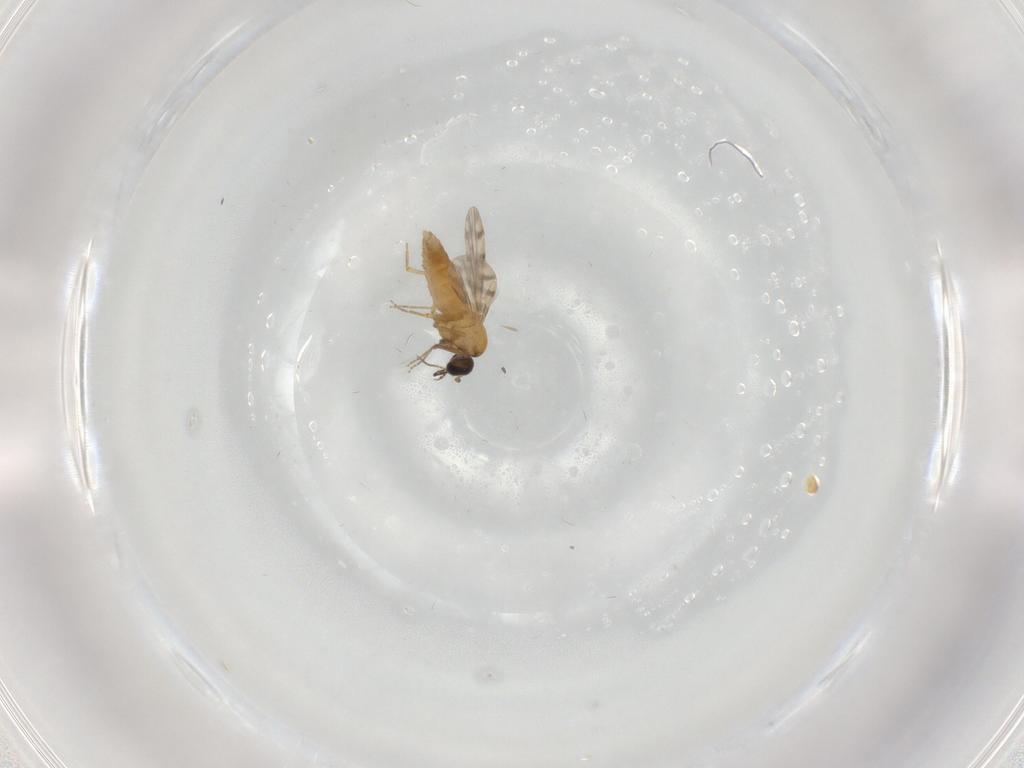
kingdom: Animalia
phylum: Arthropoda
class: Insecta
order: Diptera
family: Ceratopogonidae
